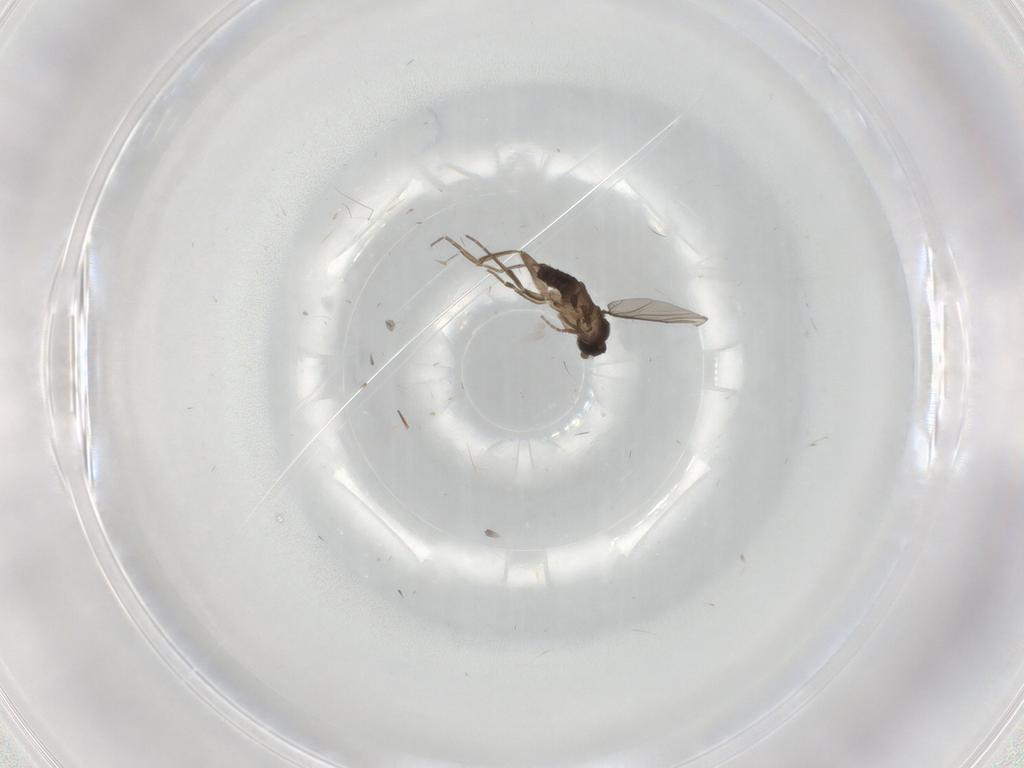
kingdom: Animalia
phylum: Arthropoda
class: Insecta
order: Diptera
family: Phoridae
